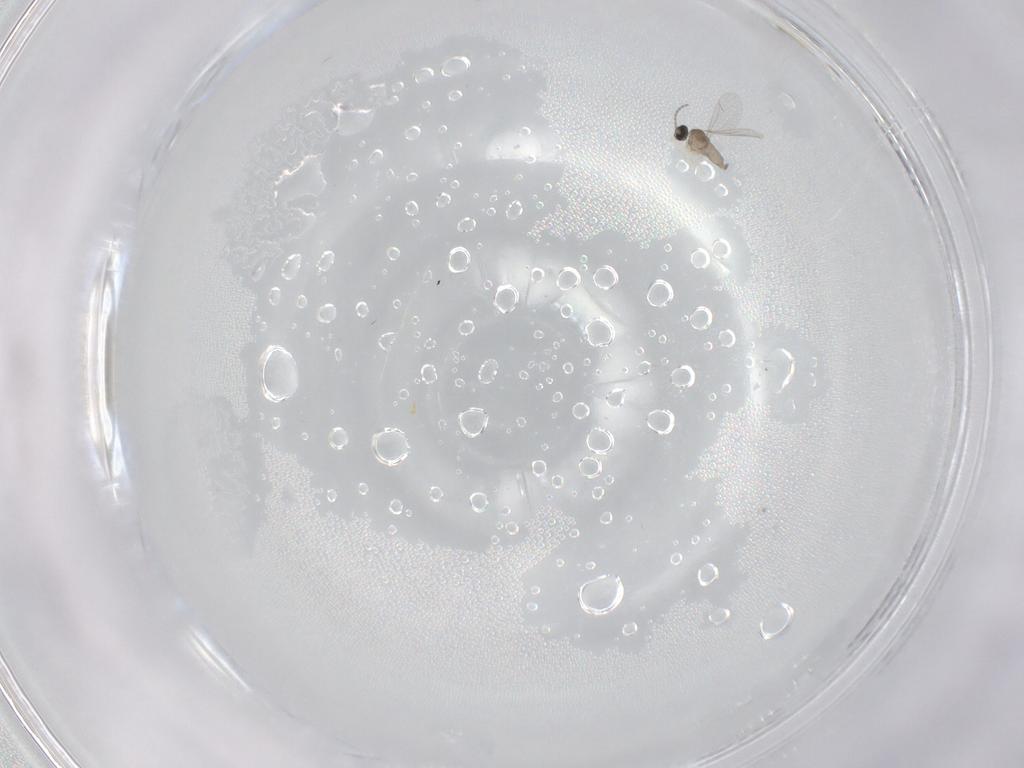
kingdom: Animalia
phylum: Arthropoda
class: Insecta
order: Diptera
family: Cecidomyiidae
